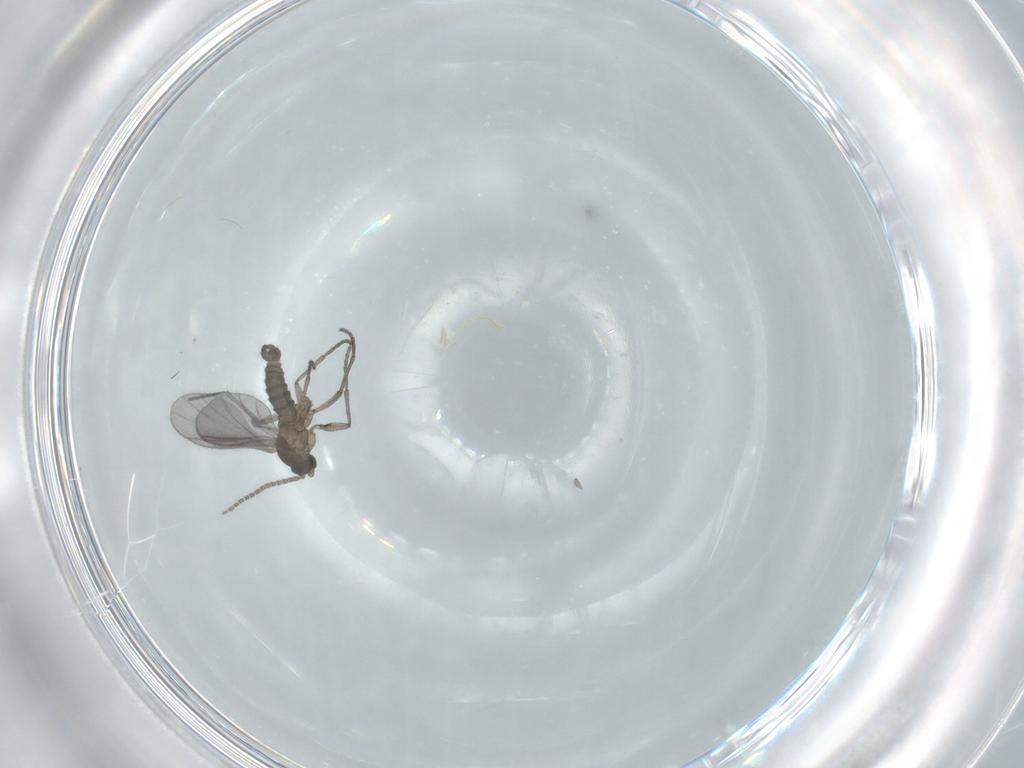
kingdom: Animalia
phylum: Arthropoda
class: Insecta
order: Diptera
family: Sciaridae
